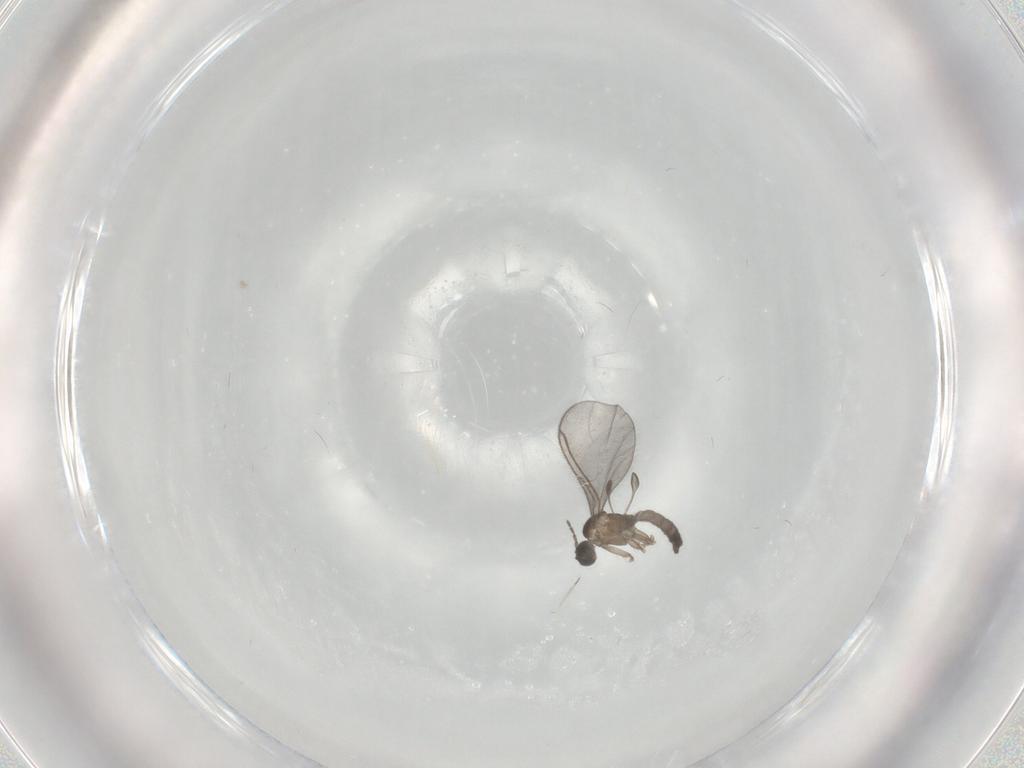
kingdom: Animalia
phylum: Arthropoda
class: Insecta
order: Diptera
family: Sciaridae
